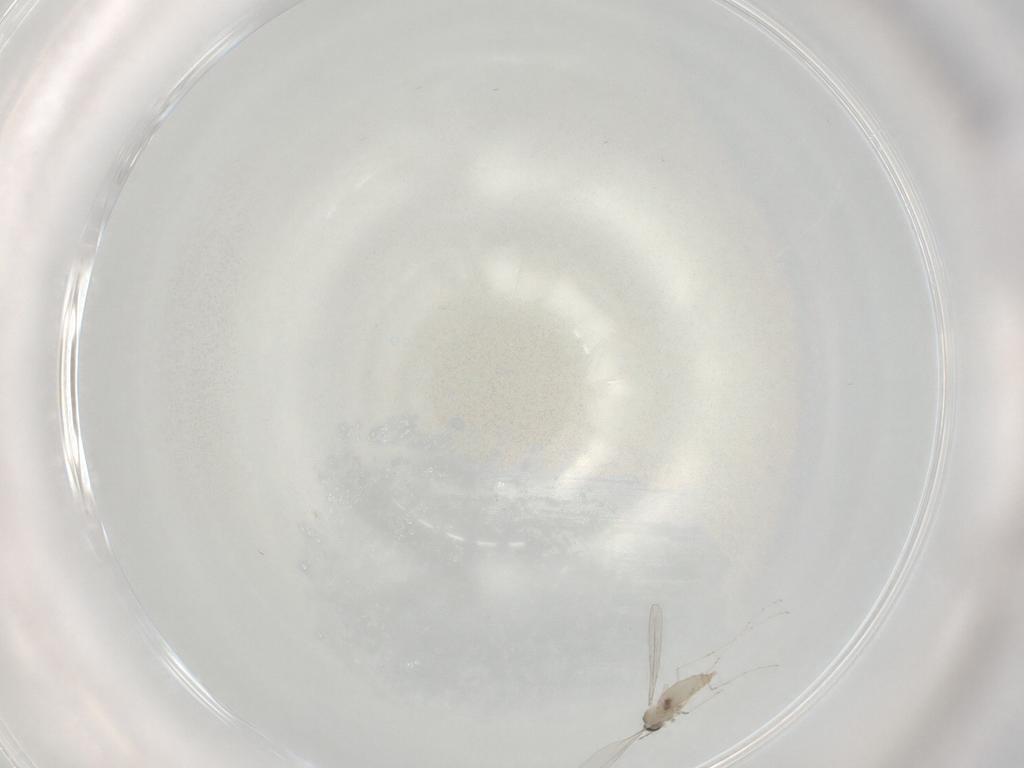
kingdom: Animalia
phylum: Arthropoda
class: Insecta
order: Diptera
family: Cecidomyiidae
